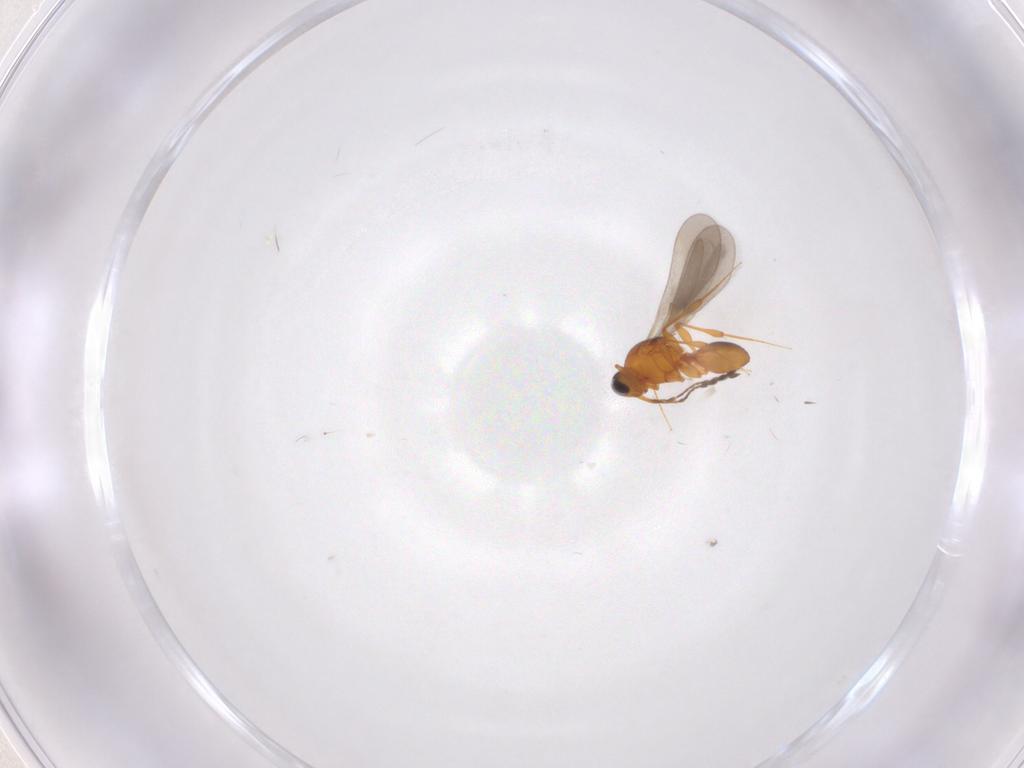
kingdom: Animalia
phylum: Arthropoda
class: Insecta
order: Hymenoptera
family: Platygastridae
